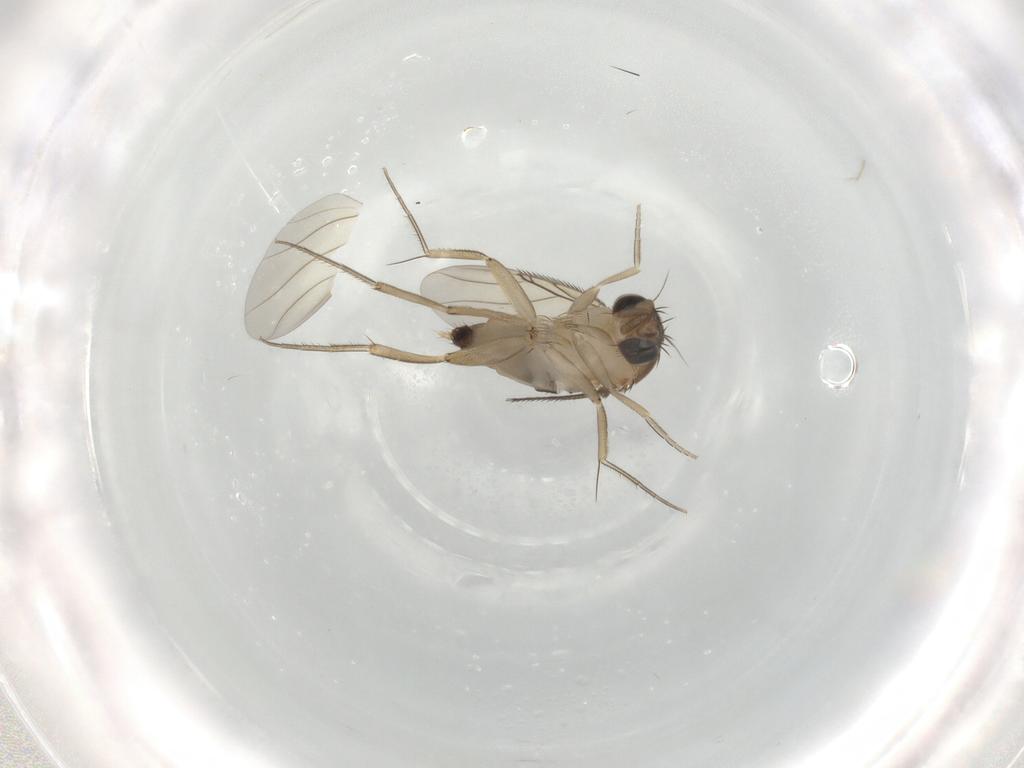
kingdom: Animalia
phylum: Arthropoda
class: Insecta
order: Diptera
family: Phoridae
